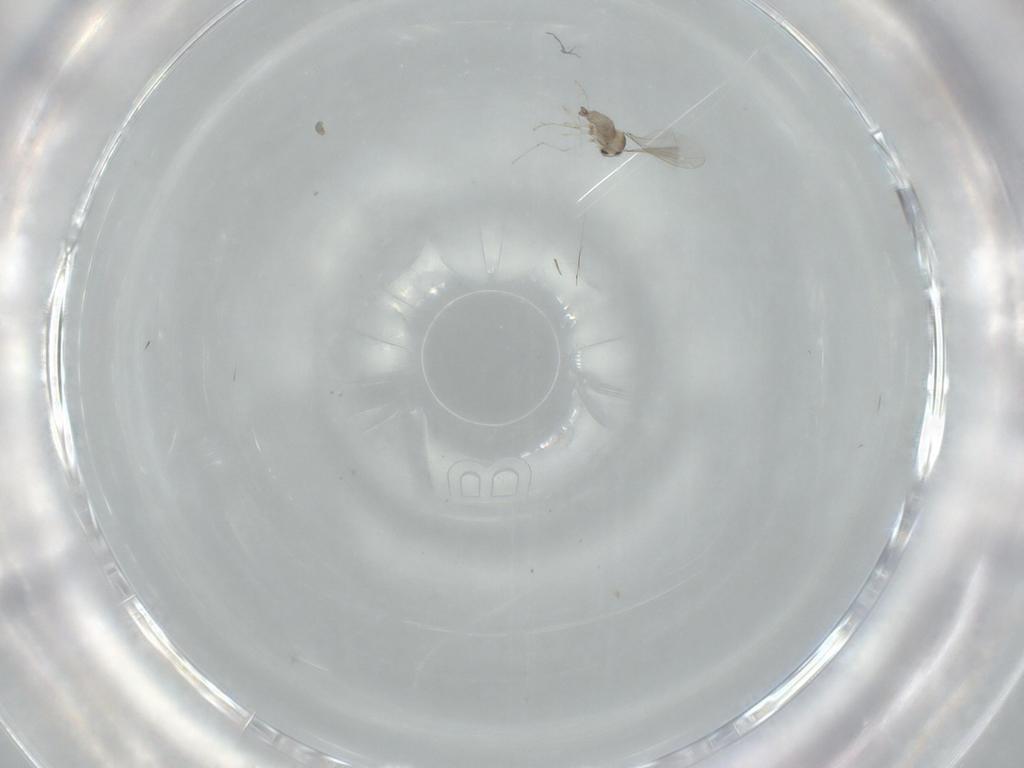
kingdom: Animalia
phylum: Arthropoda
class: Insecta
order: Diptera
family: Cecidomyiidae
